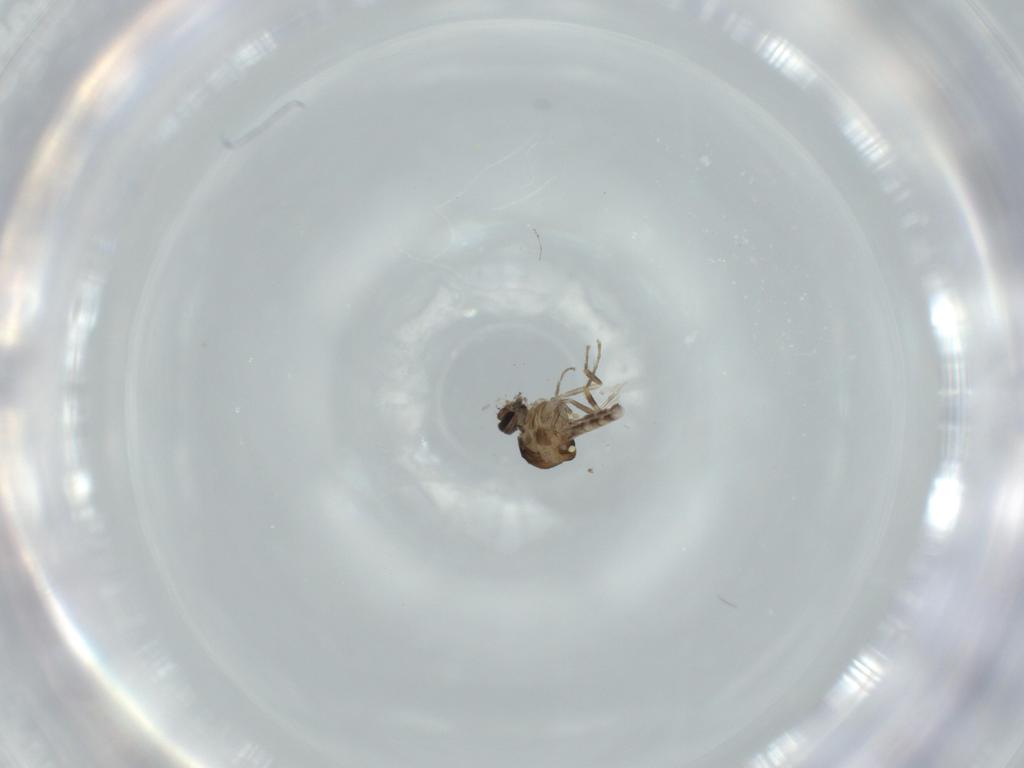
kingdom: Animalia
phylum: Arthropoda
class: Insecta
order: Diptera
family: Ceratopogonidae
